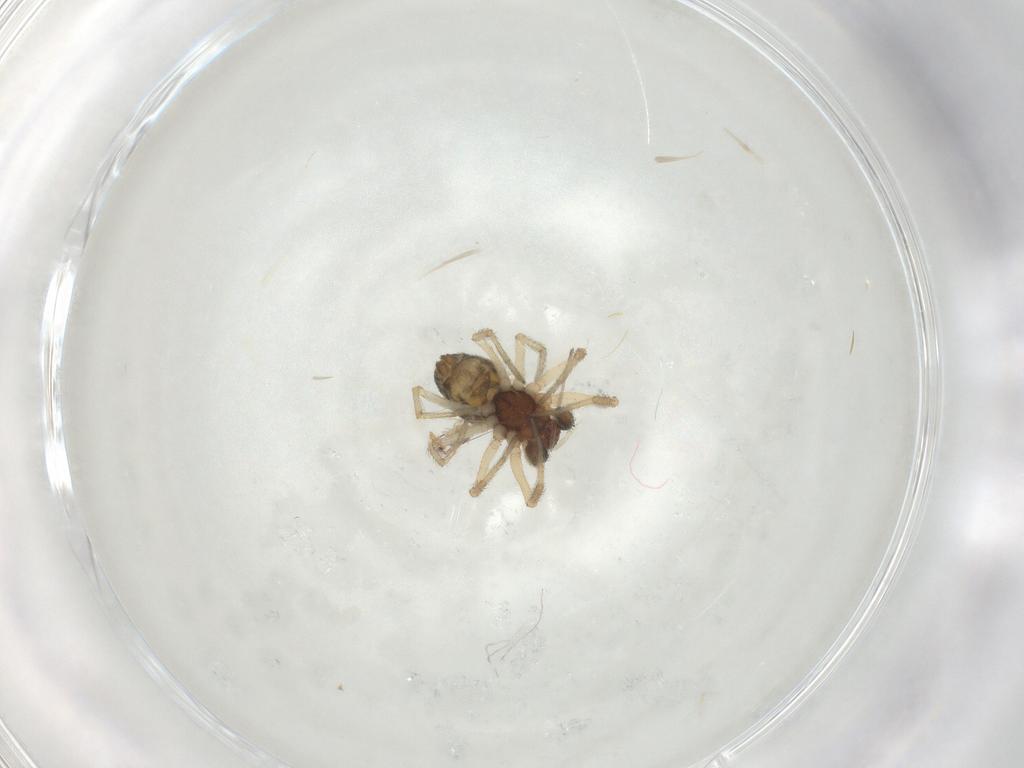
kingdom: Animalia
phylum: Arthropoda
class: Arachnida
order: Araneae
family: Dictynidae
